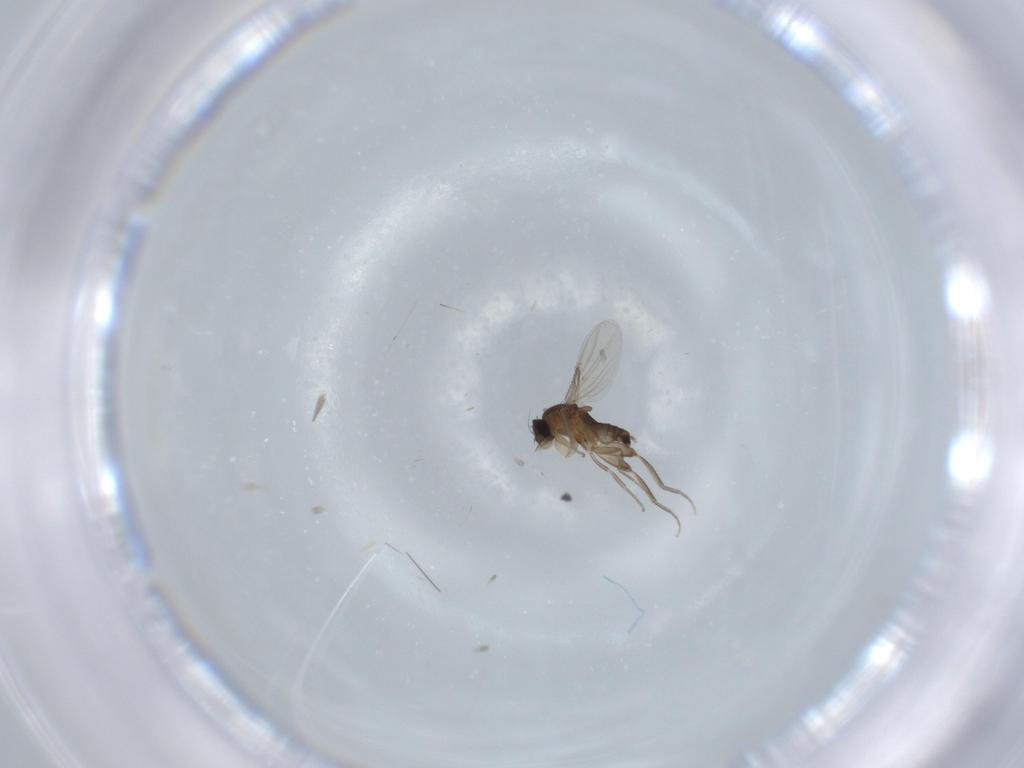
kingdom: Animalia
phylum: Arthropoda
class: Insecta
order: Diptera
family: Phoridae
